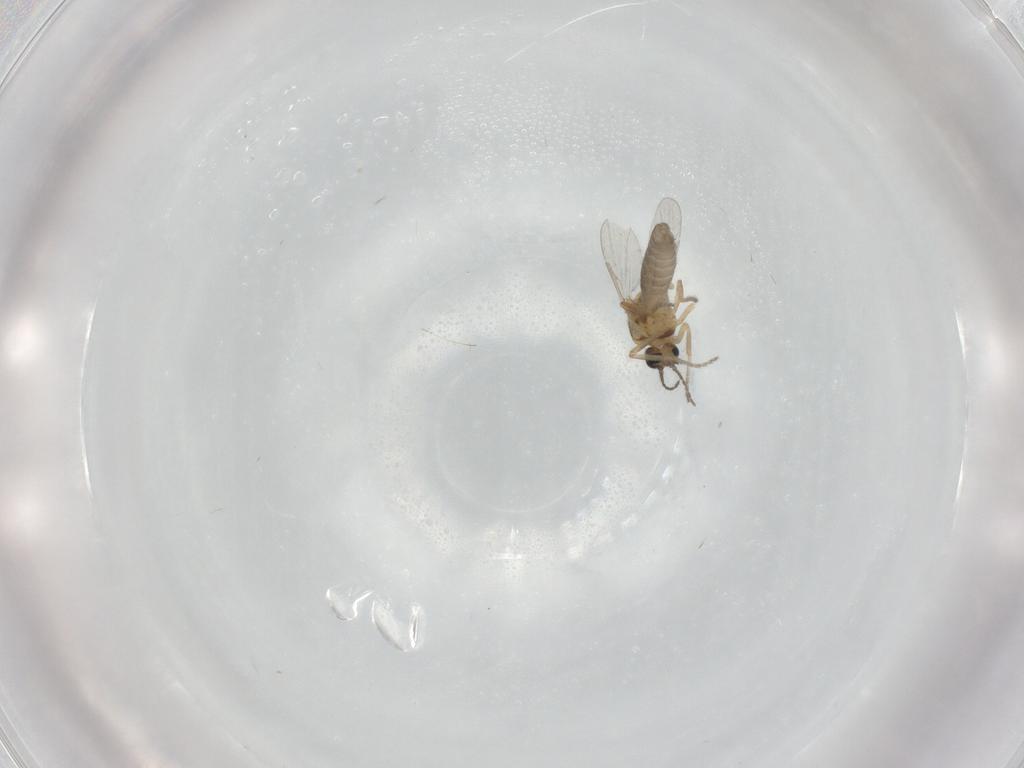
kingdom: Animalia
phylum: Arthropoda
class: Insecta
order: Diptera
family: Ceratopogonidae
